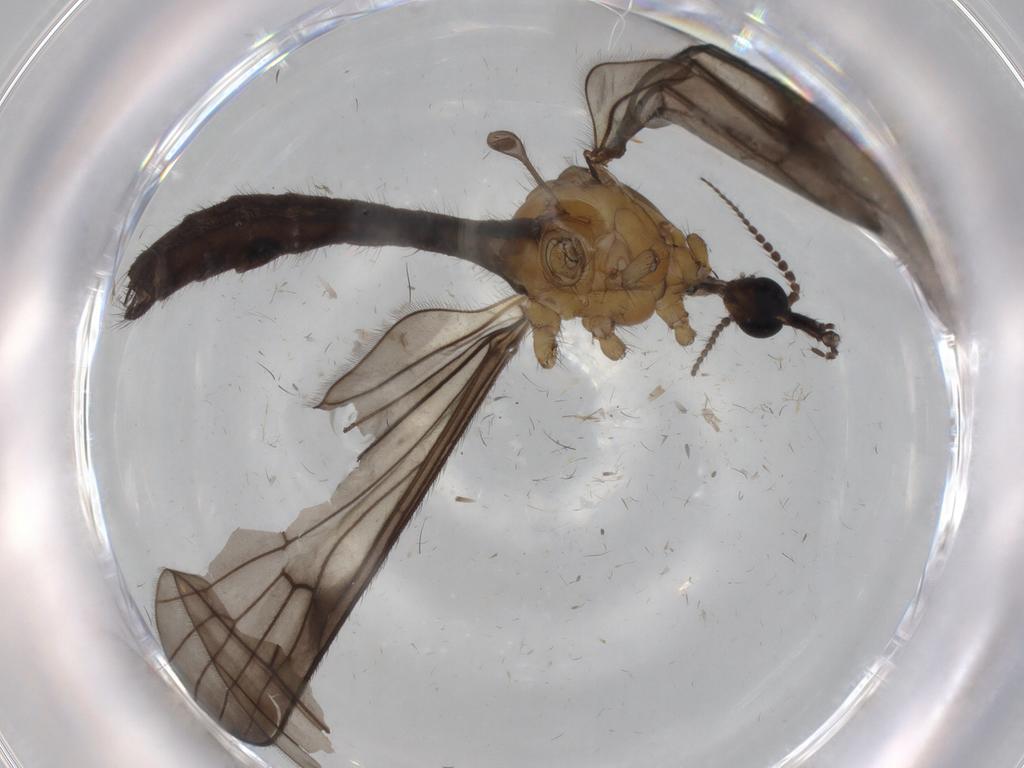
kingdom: Animalia
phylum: Arthropoda
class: Insecta
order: Diptera
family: Limoniidae
